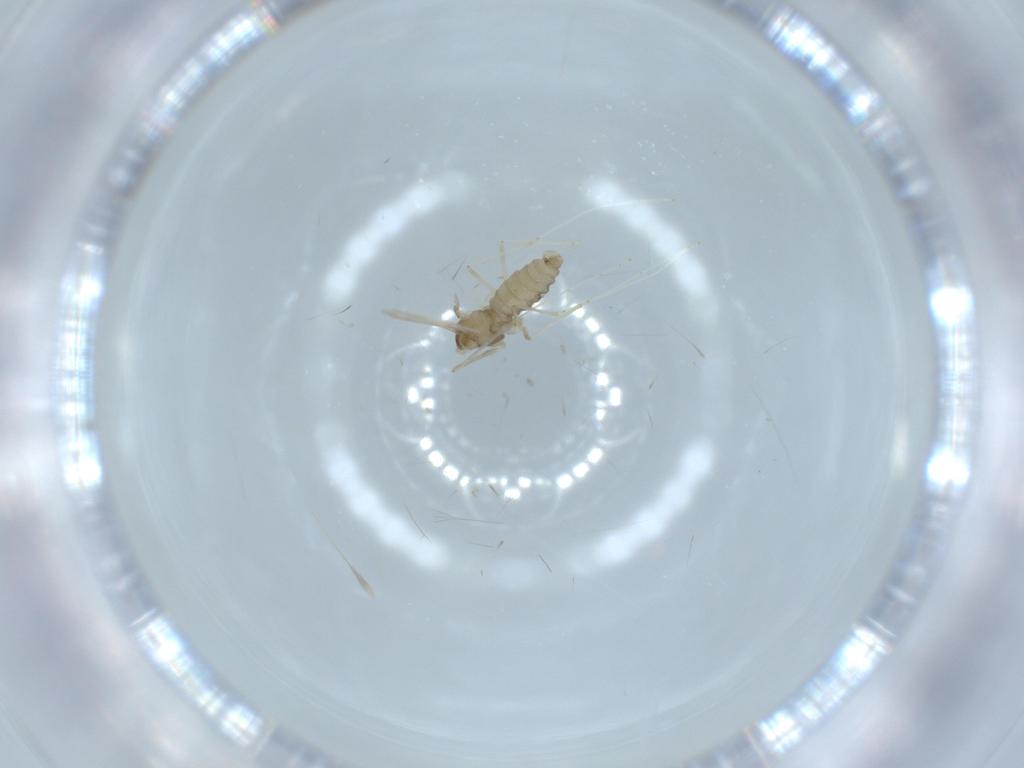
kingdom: Animalia
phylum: Arthropoda
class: Insecta
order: Diptera
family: Cecidomyiidae
